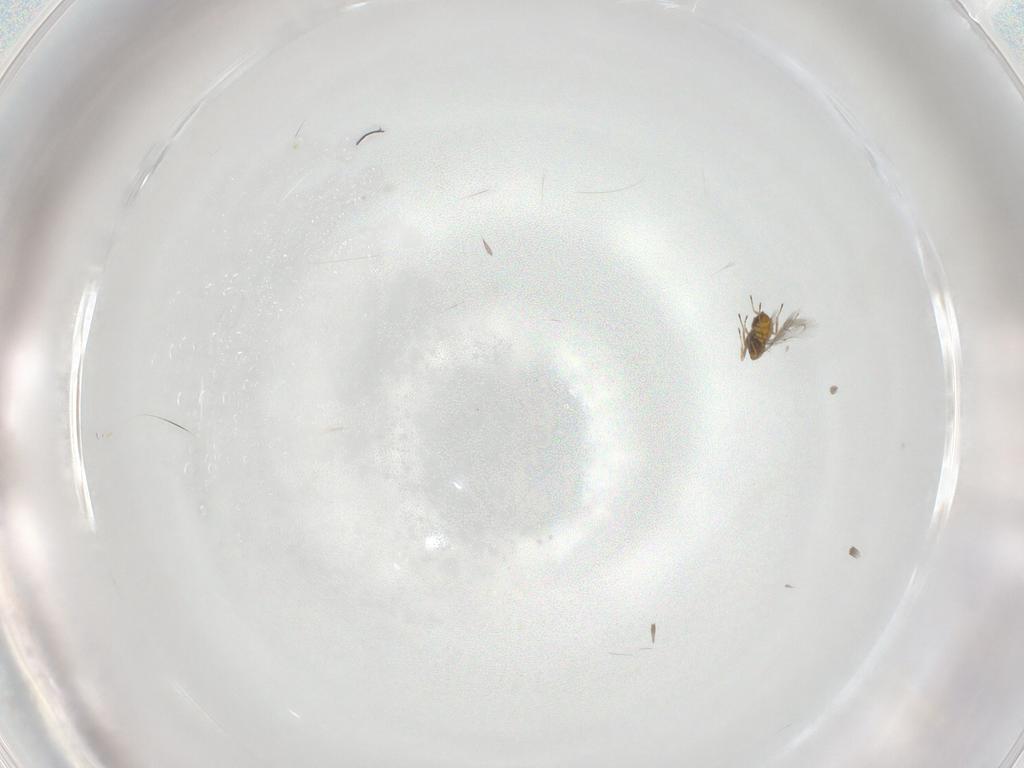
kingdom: Animalia
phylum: Arthropoda
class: Insecta
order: Hymenoptera
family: Trichogrammatidae
